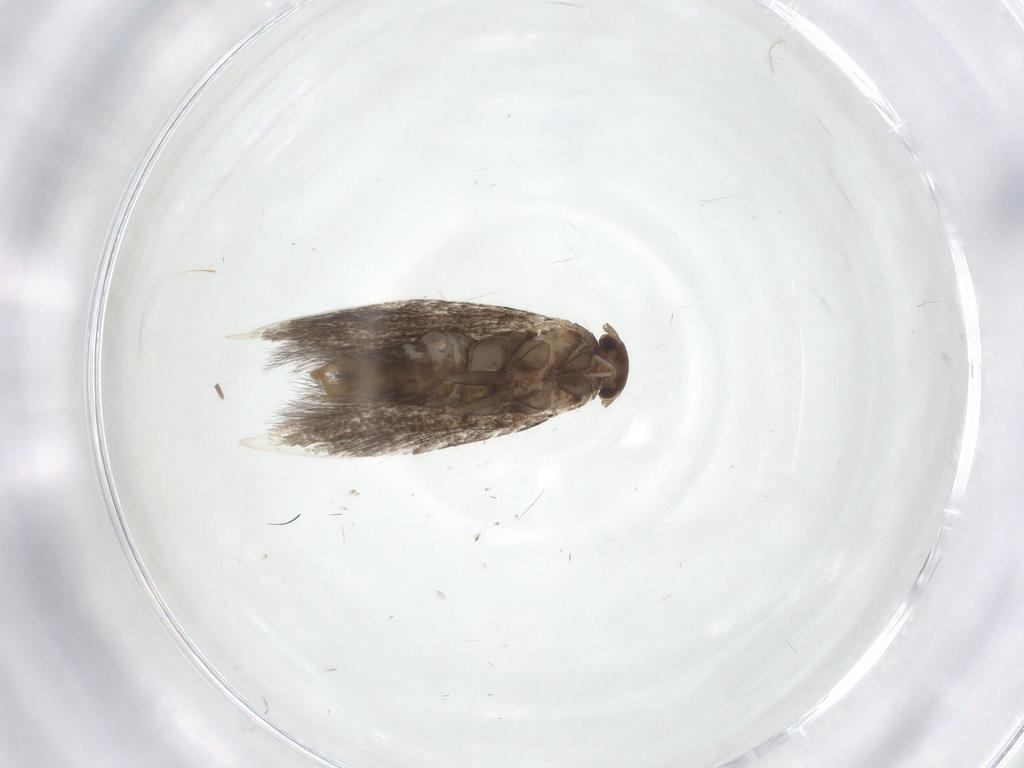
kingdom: Animalia
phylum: Arthropoda
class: Insecta
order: Lepidoptera
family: Elachistidae
